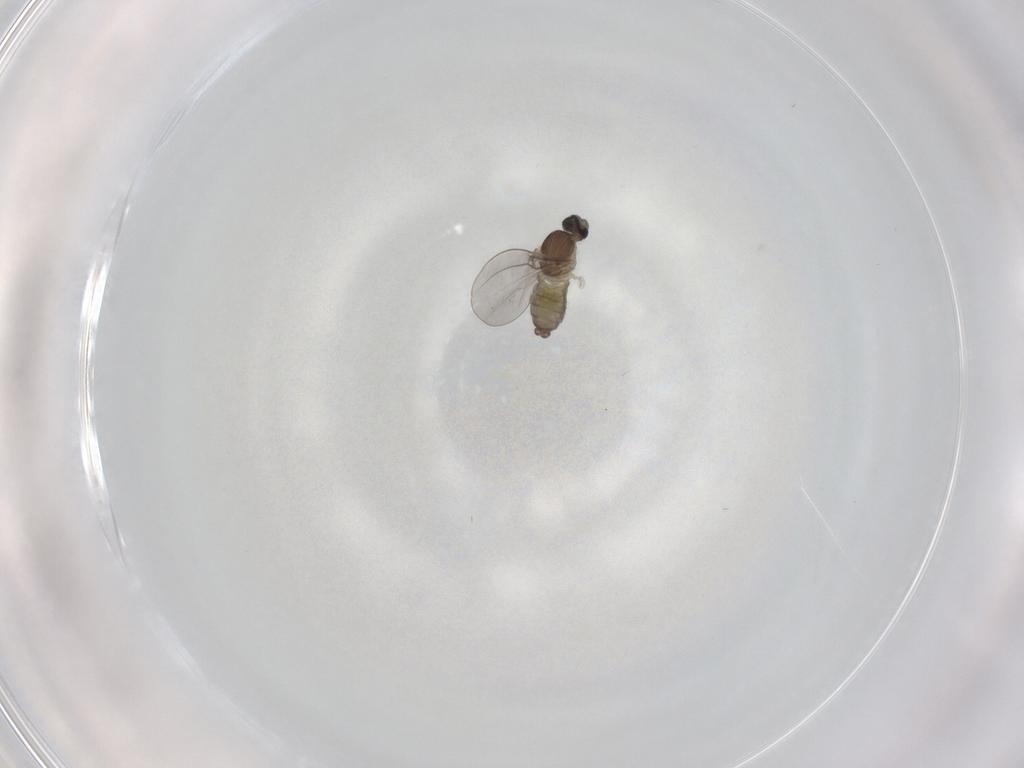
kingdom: Animalia
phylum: Arthropoda
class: Insecta
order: Diptera
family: Cecidomyiidae
